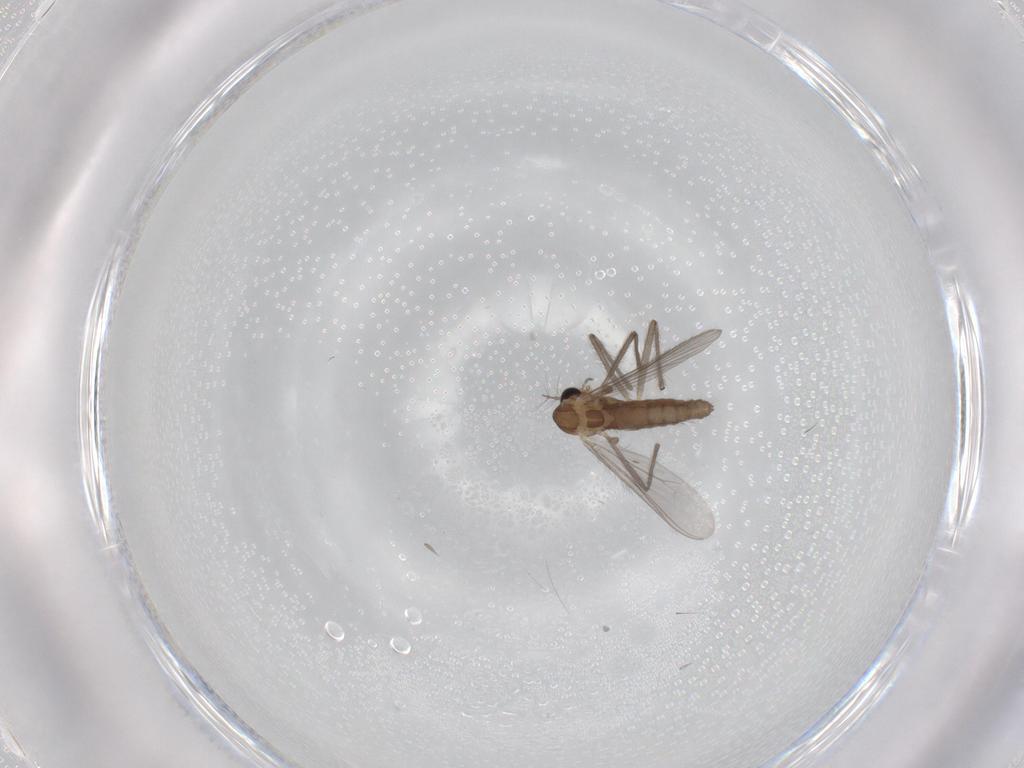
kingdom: Animalia
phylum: Arthropoda
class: Insecta
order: Diptera
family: Chironomidae
